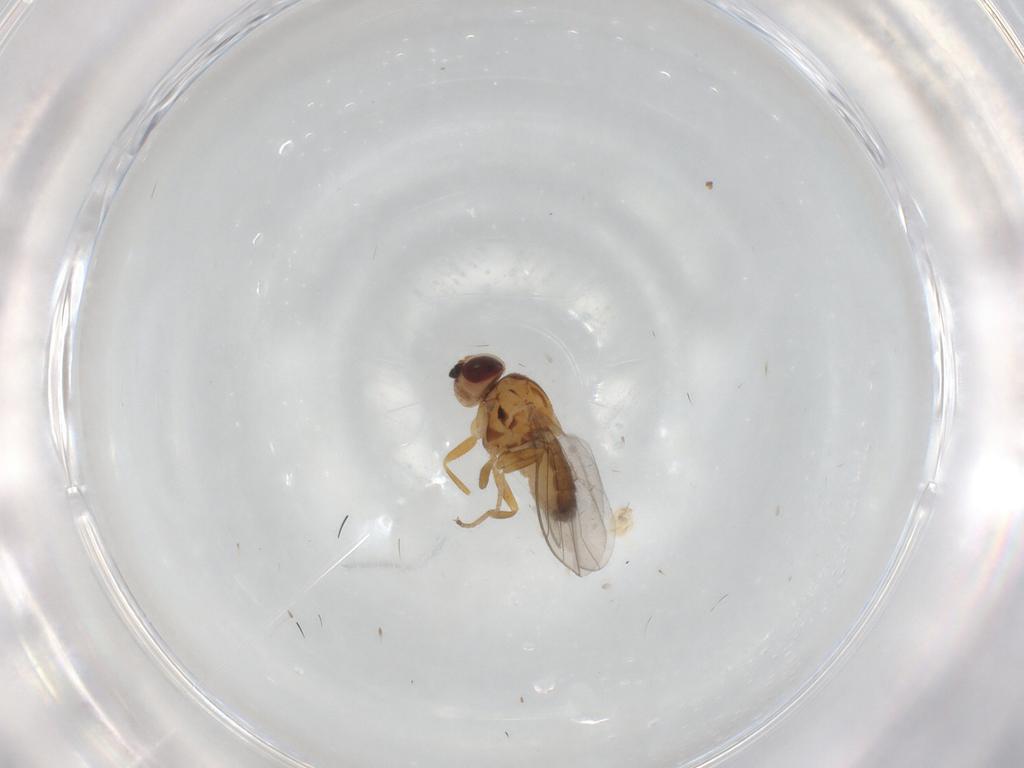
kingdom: Animalia
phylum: Arthropoda
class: Insecta
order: Diptera
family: Chloropidae
